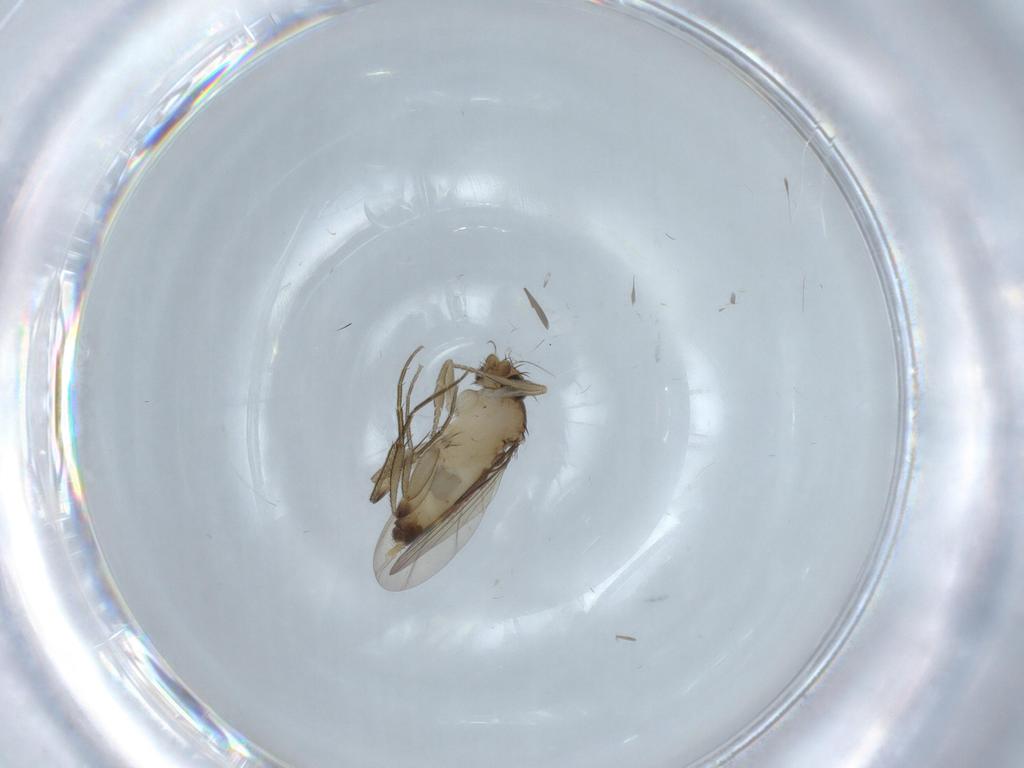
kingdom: Animalia
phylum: Arthropoda
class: Insecta
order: Diptera
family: Phoridae
